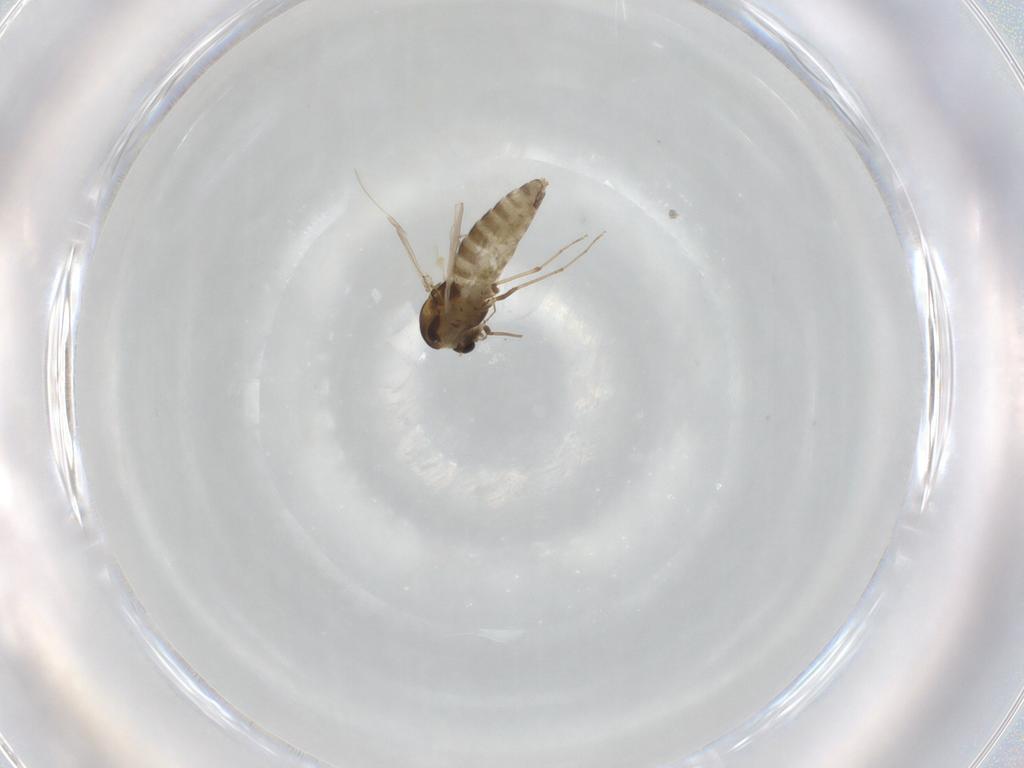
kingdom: Animalia
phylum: Arthropoda
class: Insecta
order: Diptera
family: Chironomidae
